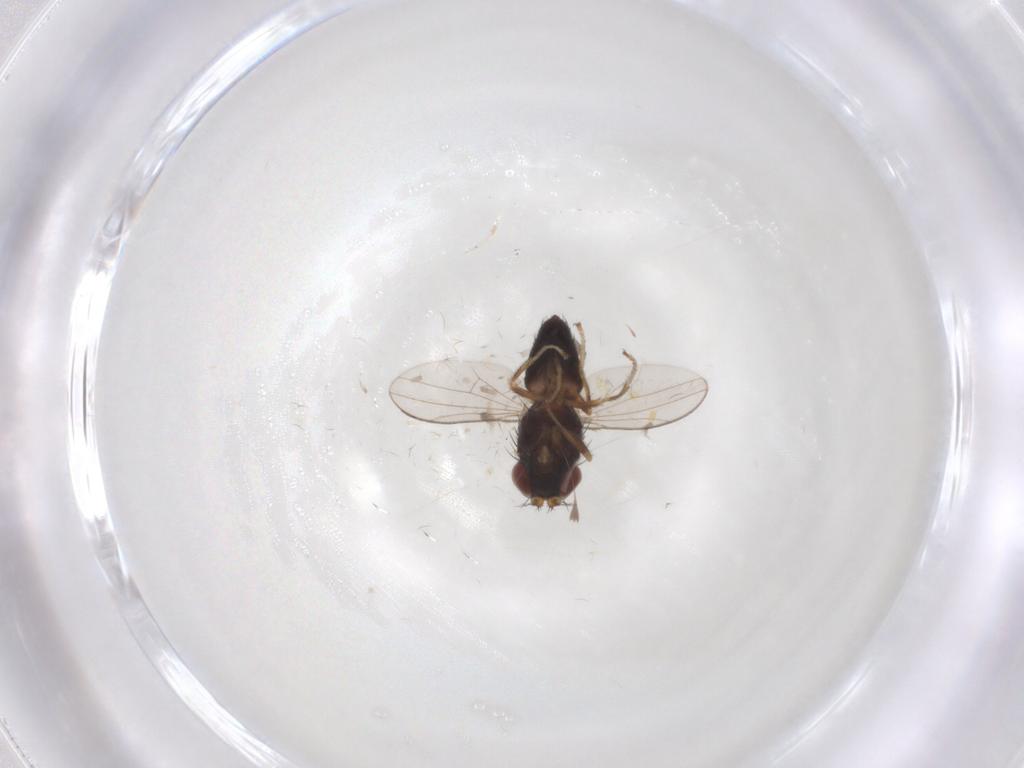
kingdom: Animalia
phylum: Arthropoda
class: Insecta
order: Diptera
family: Ephydridae
